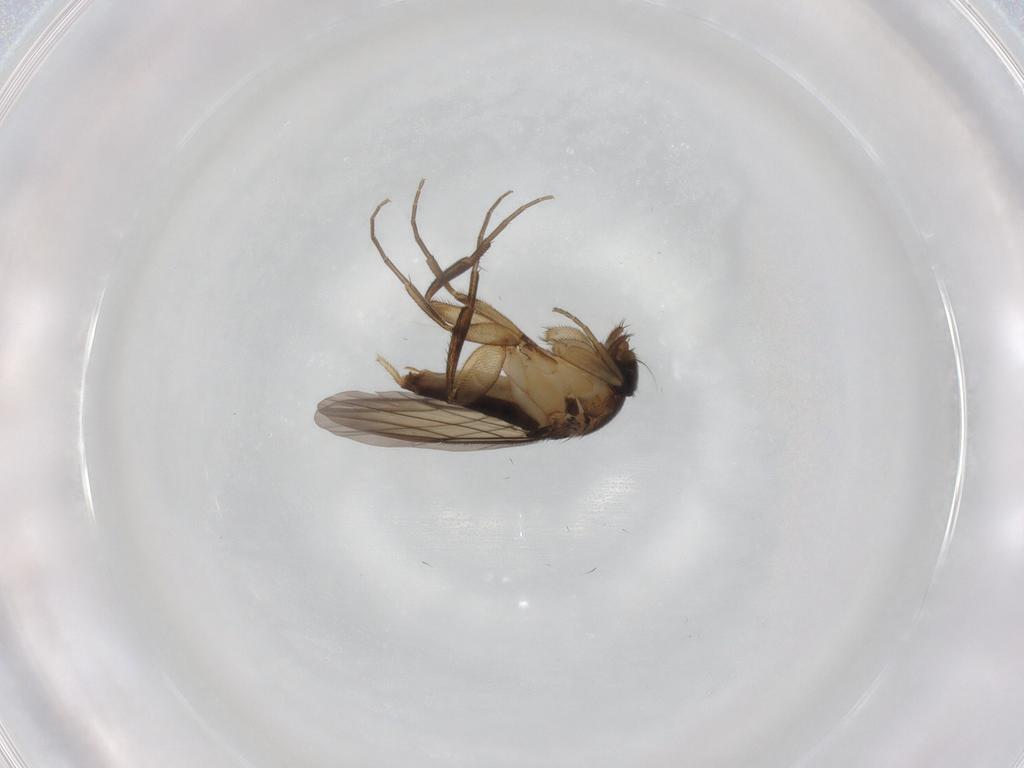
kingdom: Animalia
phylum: Arthropoda
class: Insecta
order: Diptera
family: Phoridae
